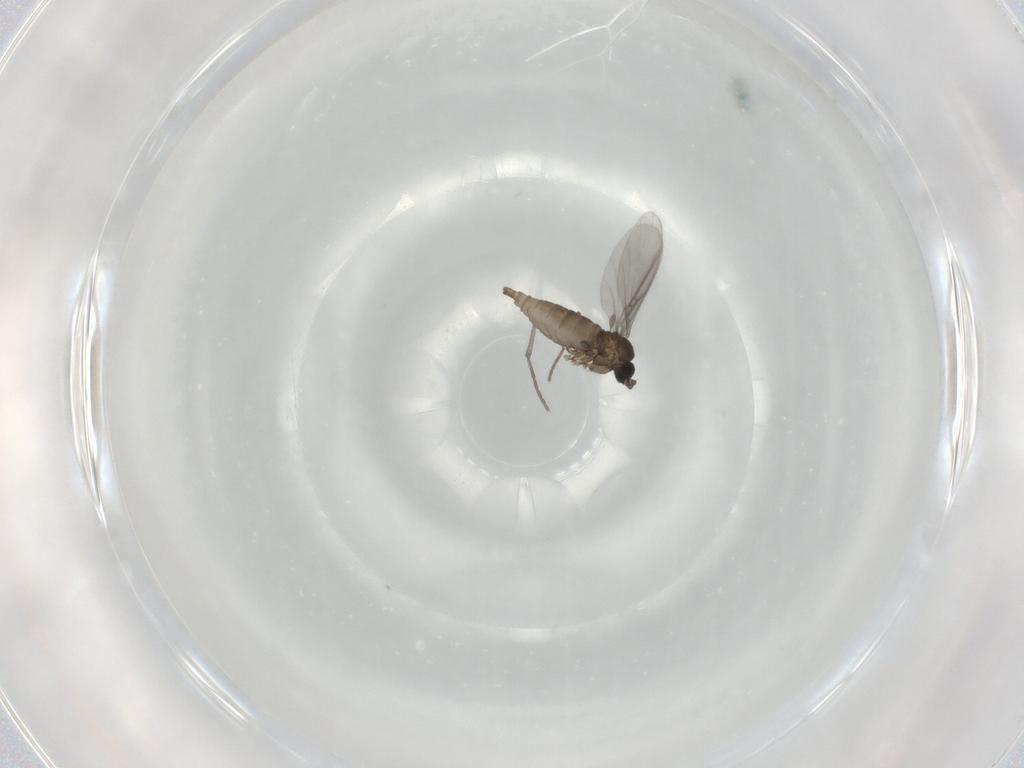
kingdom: Animalia
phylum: Arthropoda
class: Insecta
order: Diptera
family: Sciaridae
